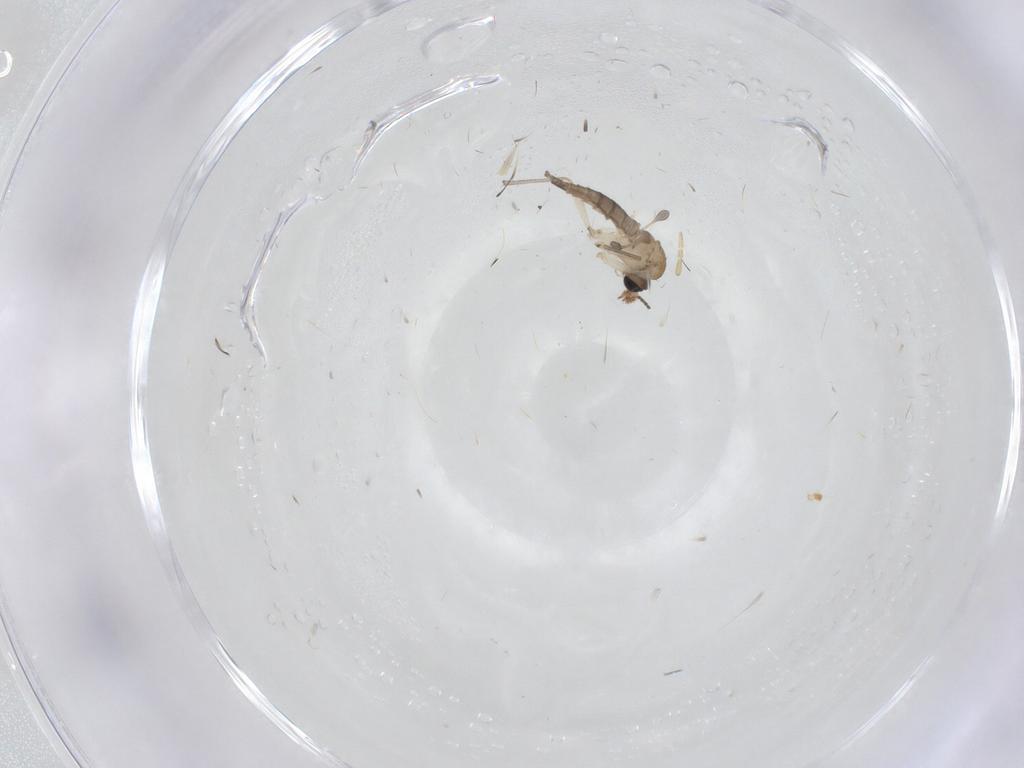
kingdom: Animalia
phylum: Arthropoda
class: Insecta
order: Diptera
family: Sciaridae
